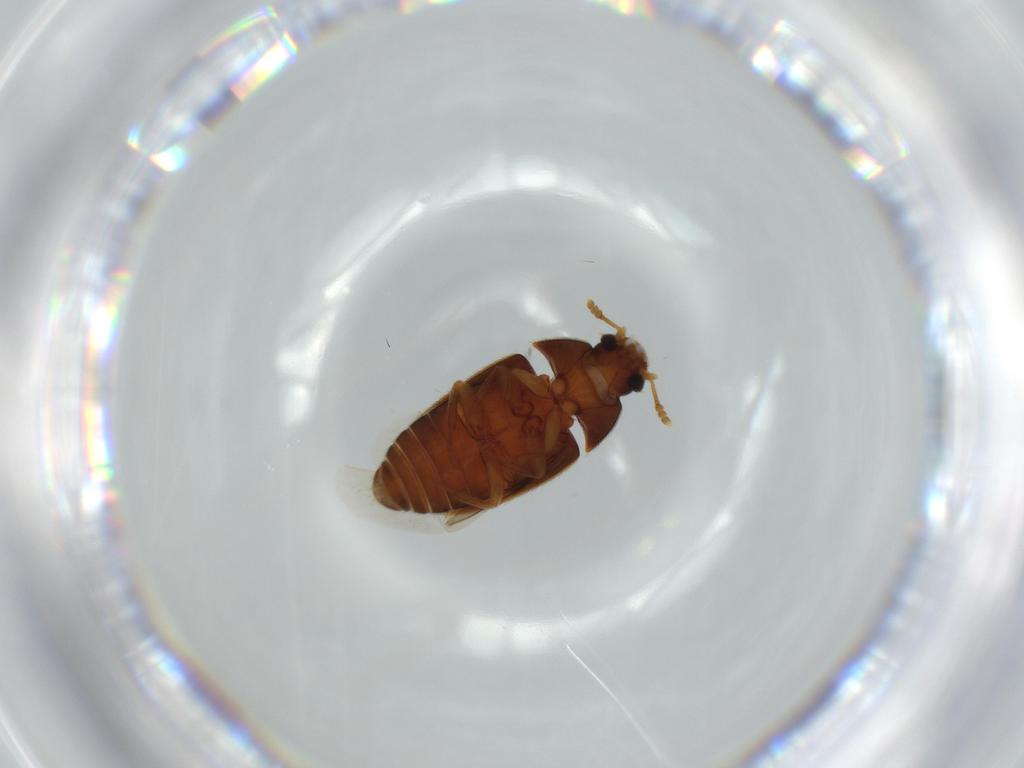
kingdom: Animalia
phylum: Arthropoda
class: Insecta
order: Coleoptera
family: Mycetophagidae
